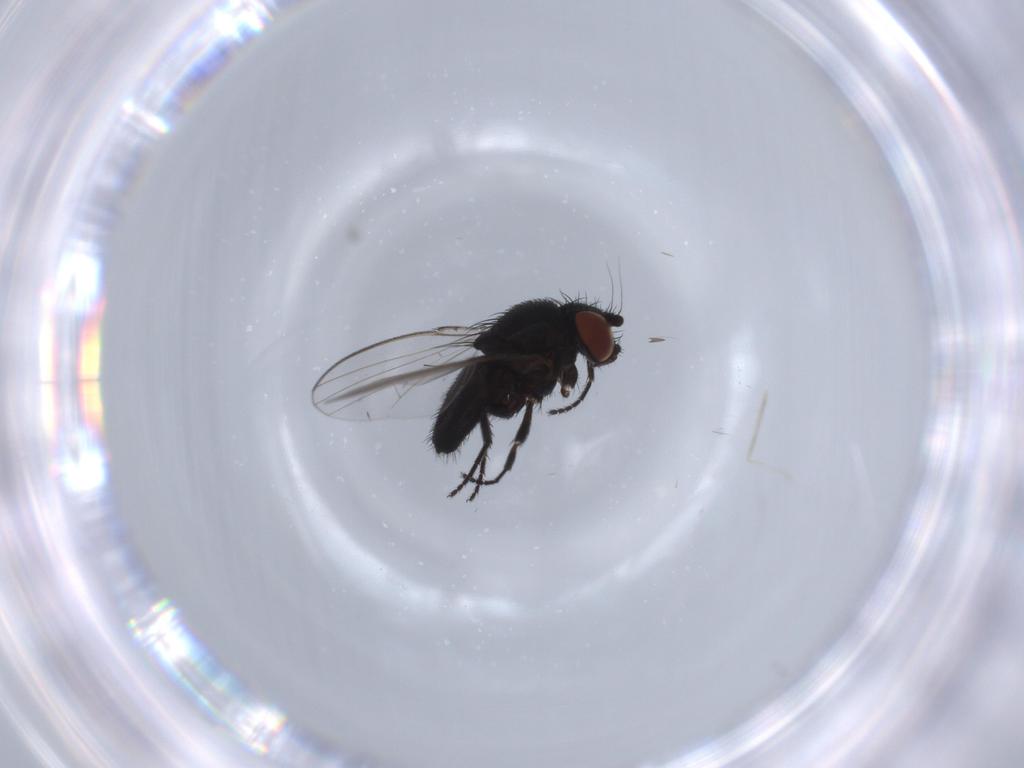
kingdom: Animalia
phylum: Arthropoda
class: Insecta
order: Diptera
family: Milichiidae
